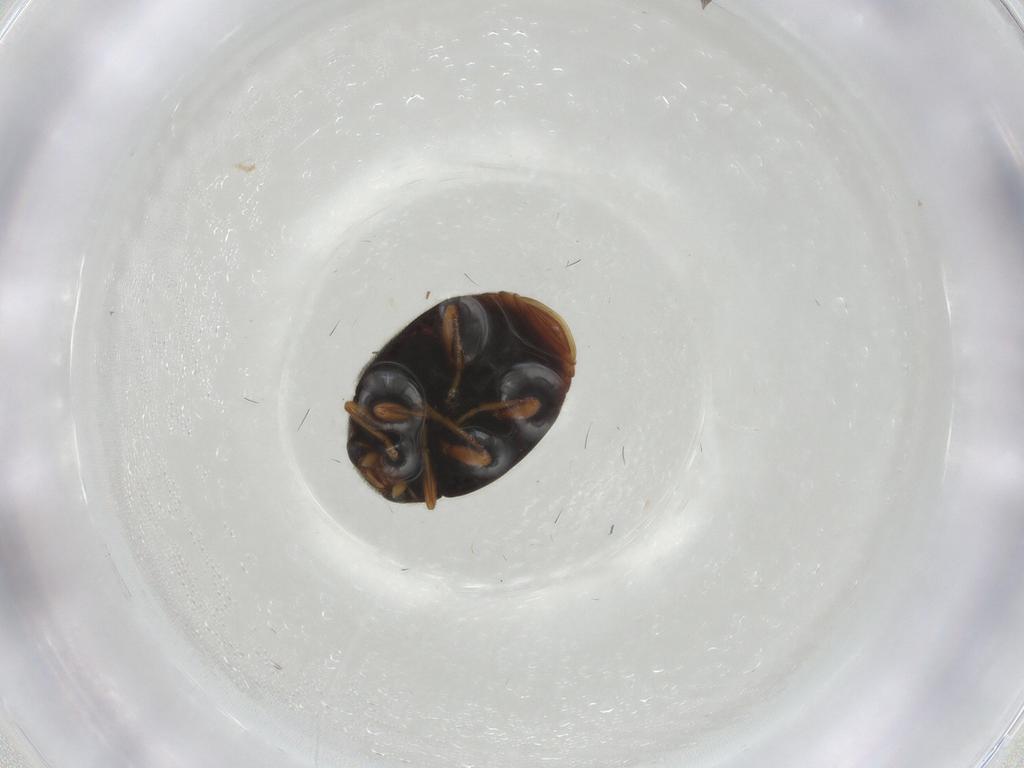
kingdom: Animalia
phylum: Arthropoda
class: Insecta
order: Coleoptera
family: Coccinellidae
